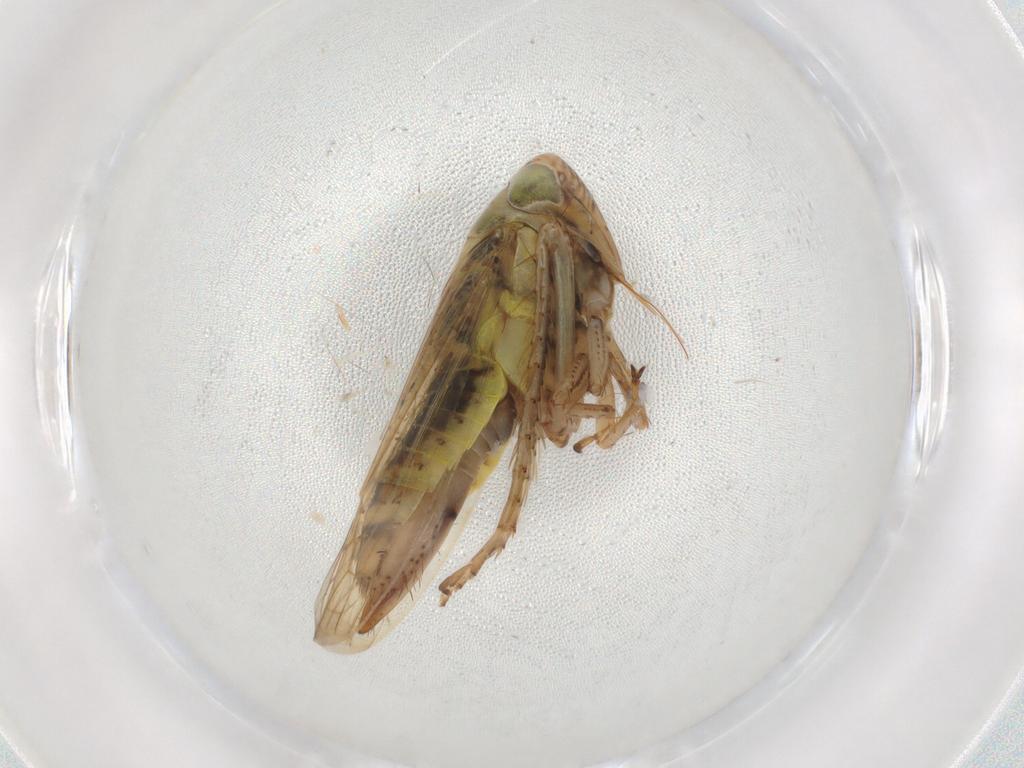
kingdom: Animalia
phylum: Arthropoda
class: Insecta
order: Hemiptera
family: Cicadellidae
